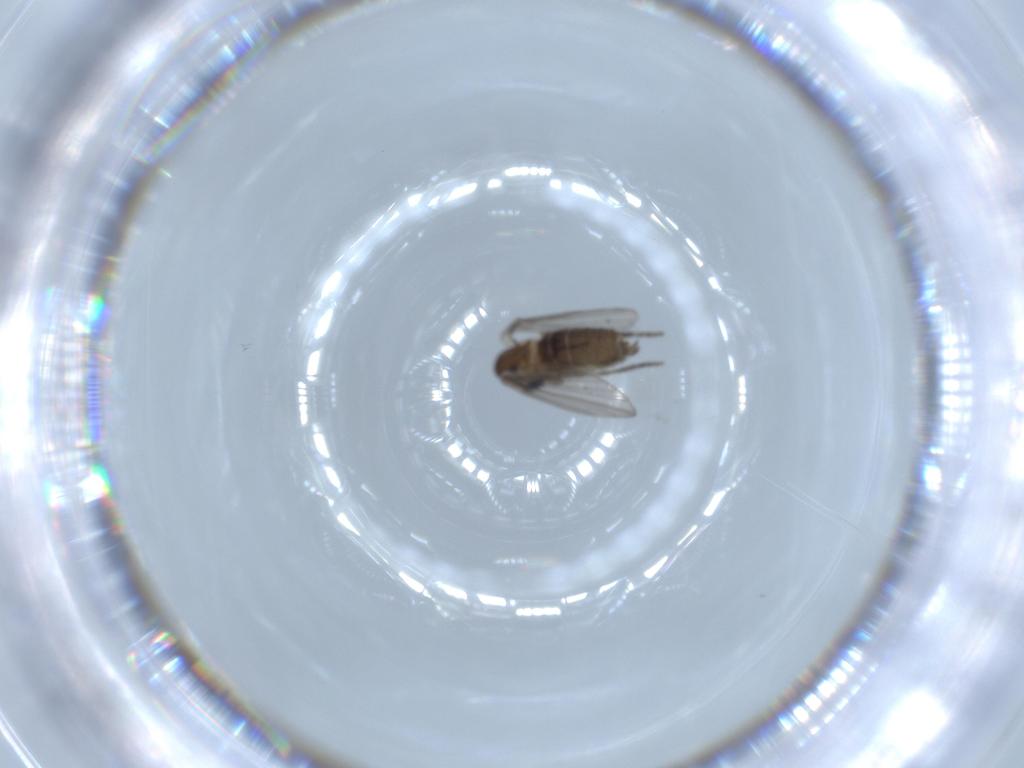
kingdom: Animalia
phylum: Arthropoda
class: Insecta
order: Diptera
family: Psychodidae
